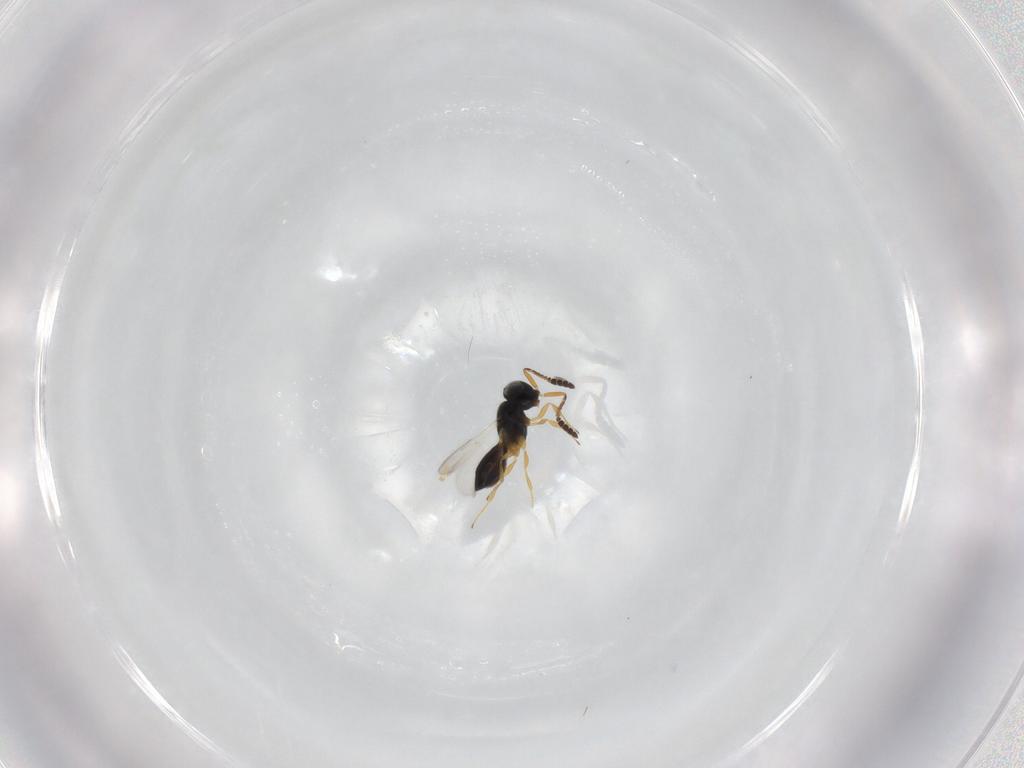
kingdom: Animalia
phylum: Arthropoda
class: Insecta
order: Hymenoptera
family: Scelionidae
